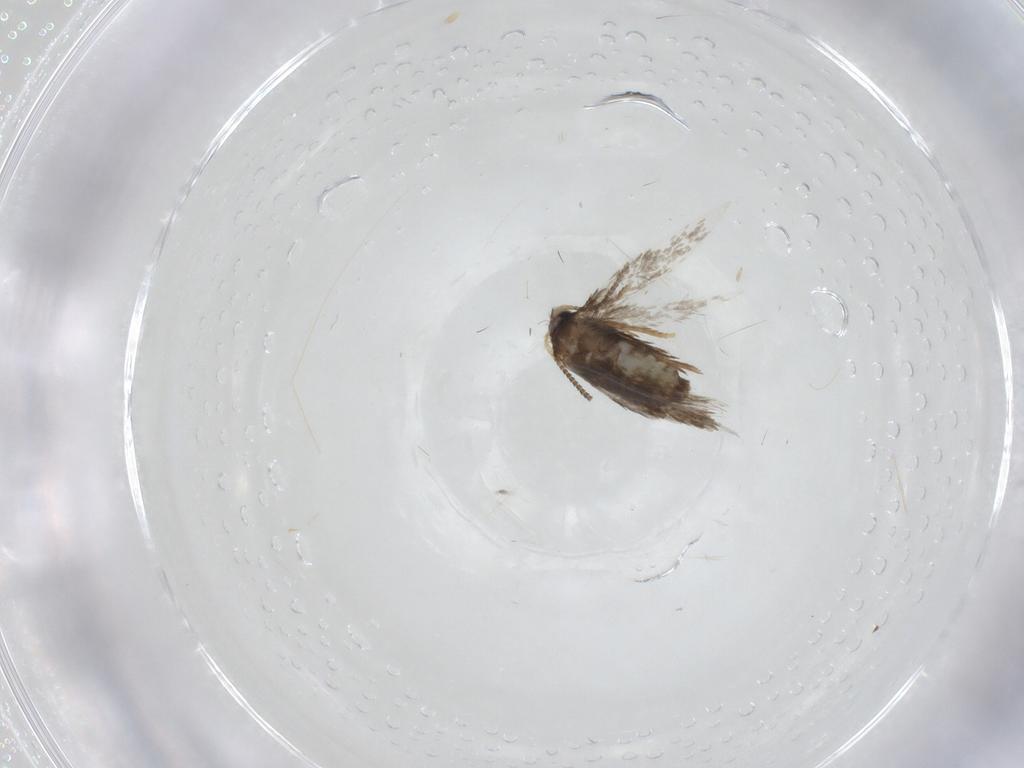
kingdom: Animalia
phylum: Arthropoda
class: Insecta
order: Lepidoptera
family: Nepticulidae
